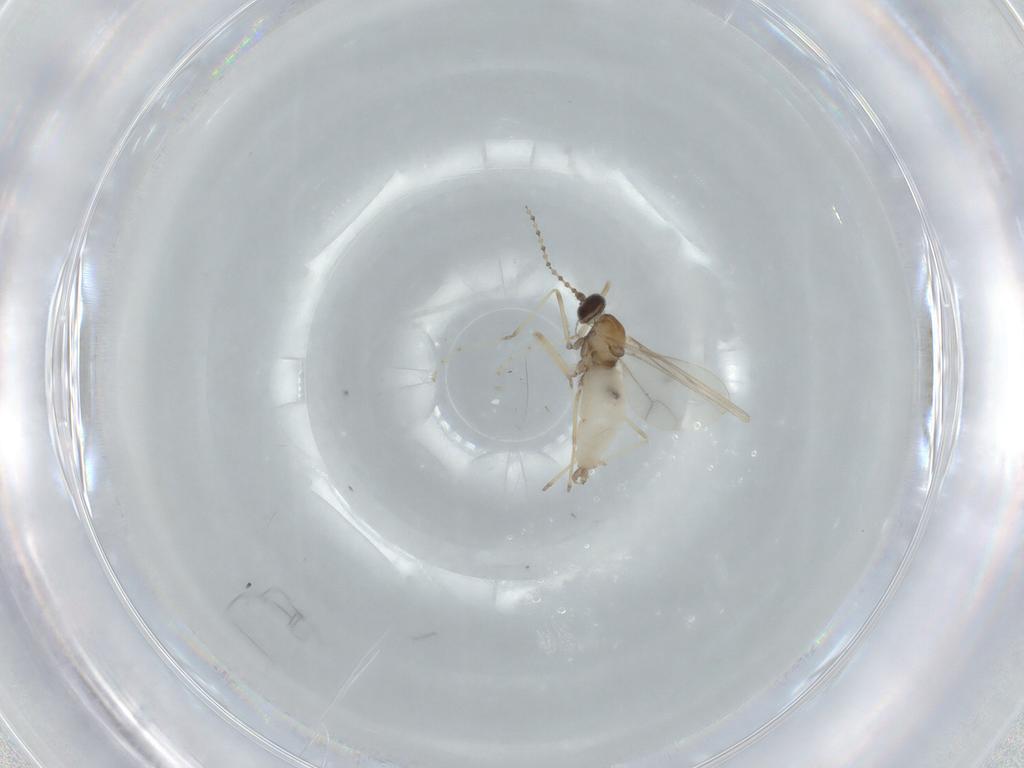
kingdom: Animalia
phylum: Arthropoda
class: Insecta
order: Diptera
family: Cecidomyiidae
